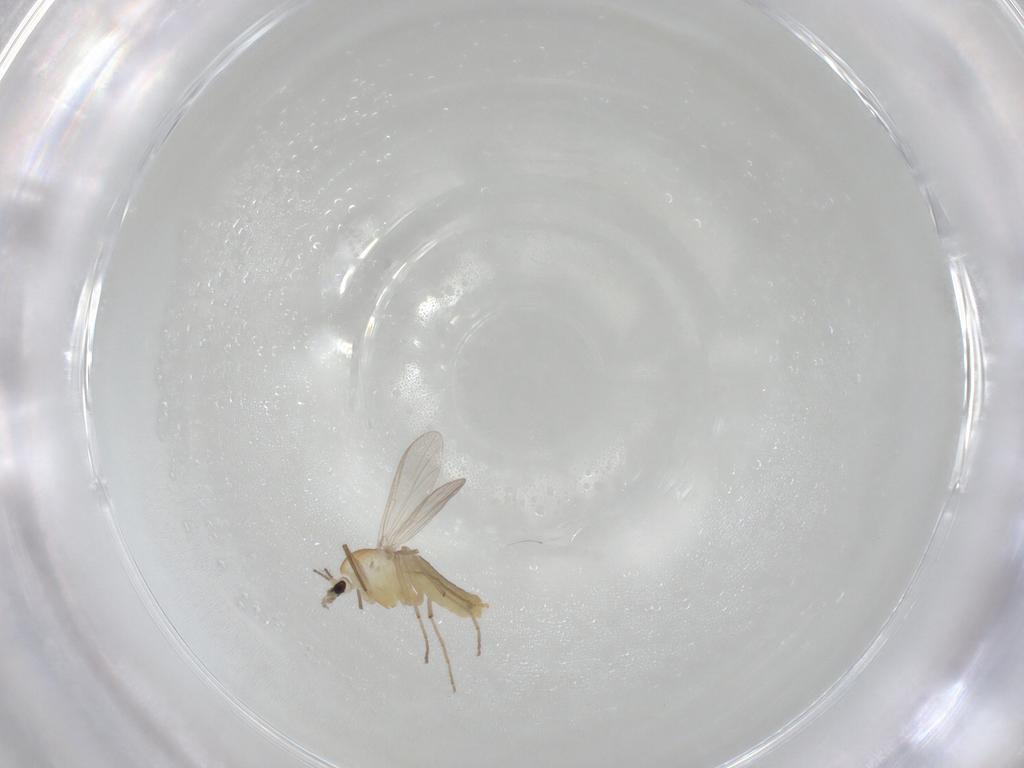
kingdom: Animalia
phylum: Arthropoda
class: Insecta
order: Diptera
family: Chironomidae
